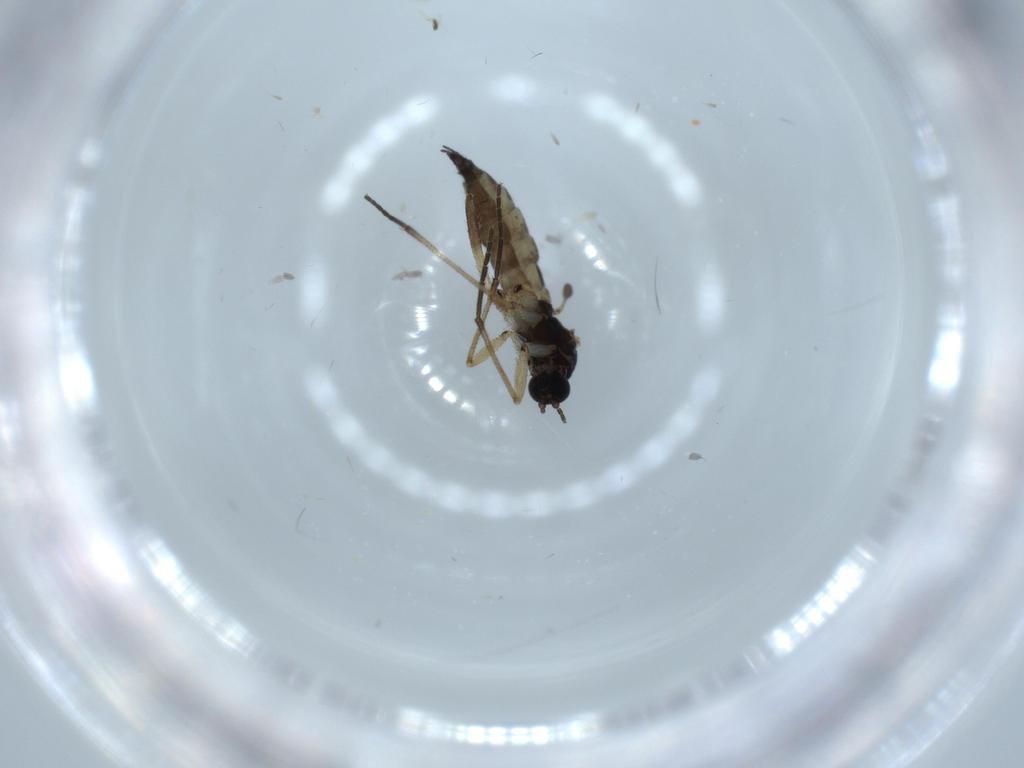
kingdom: Animalia
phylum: Arthropoda
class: Insecta
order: Diptera
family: Sciaridae
